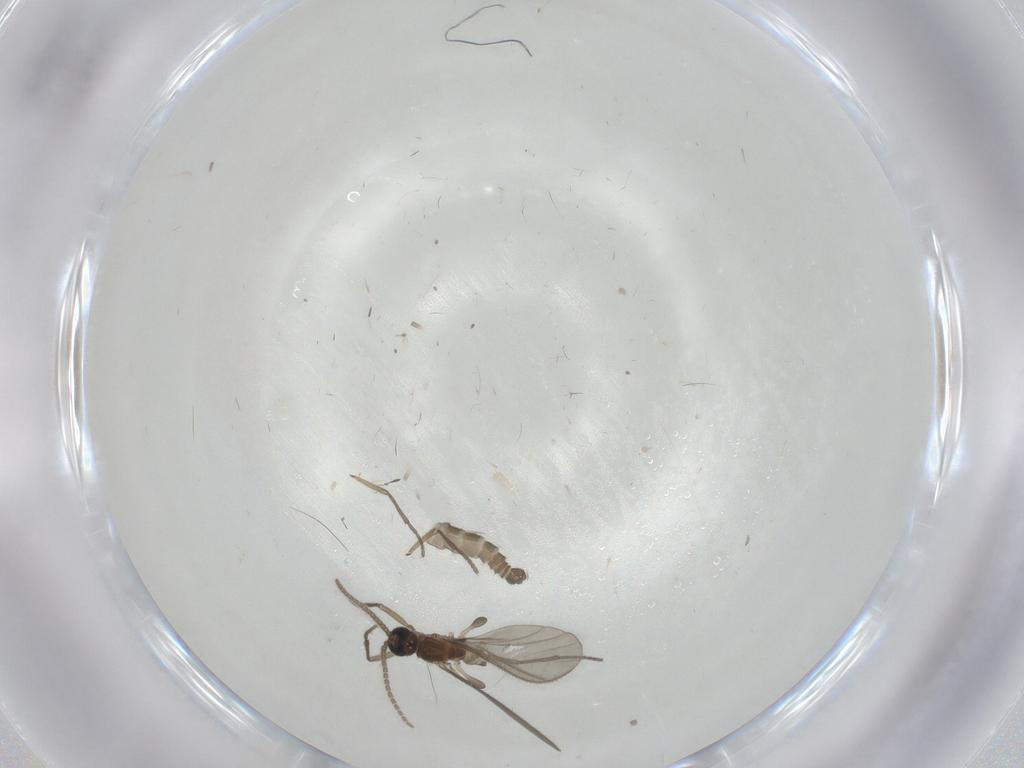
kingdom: Animalia
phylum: Arthropoda
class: Insecta
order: Diptera
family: Sciaridae
